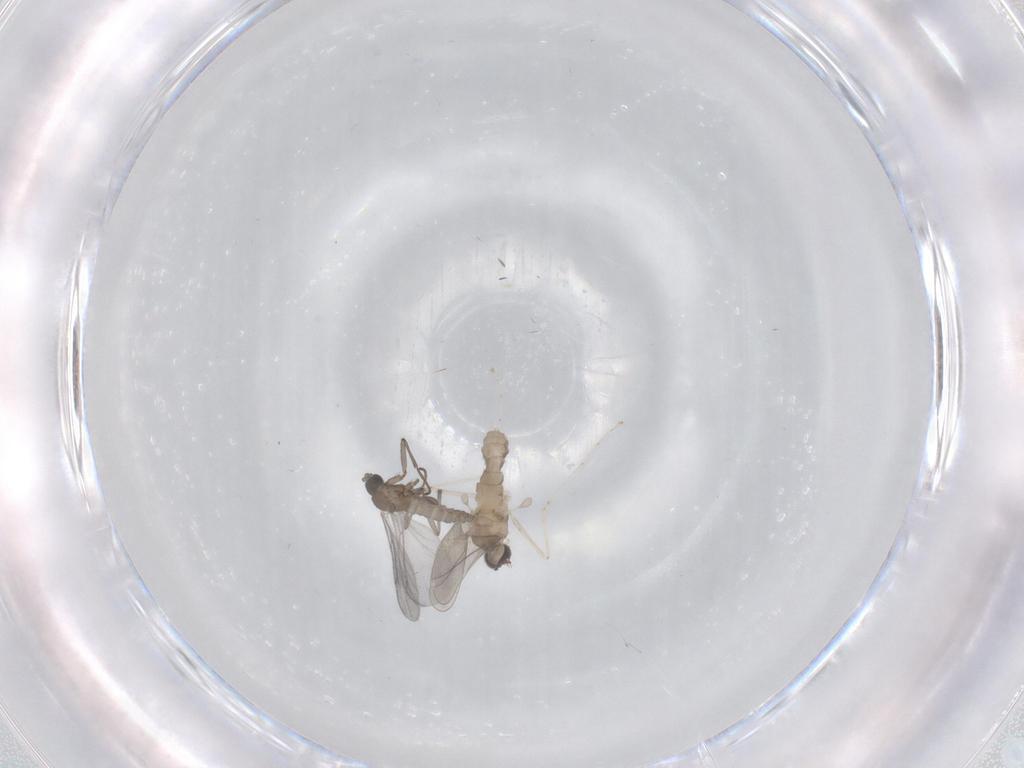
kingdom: Animalia
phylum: Arthropoda
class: Insecta
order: Diptera
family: Cecidomyiidae
